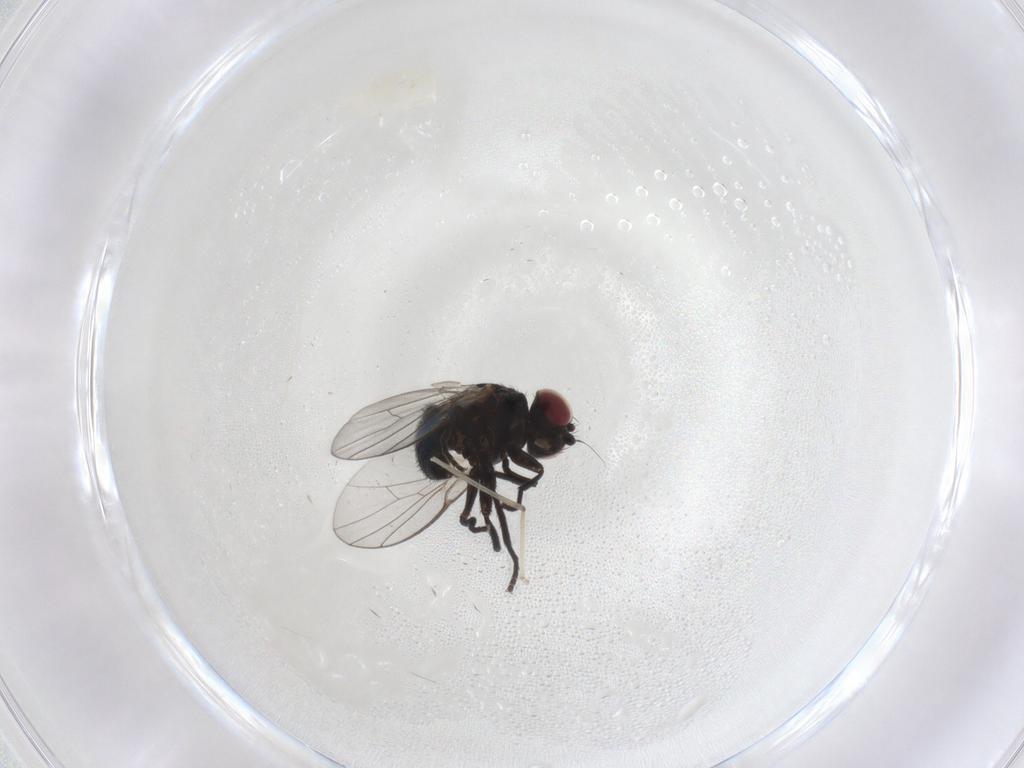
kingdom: Animalia
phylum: Arthropoda
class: Insecta
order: Diptera
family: Agromyzidae
